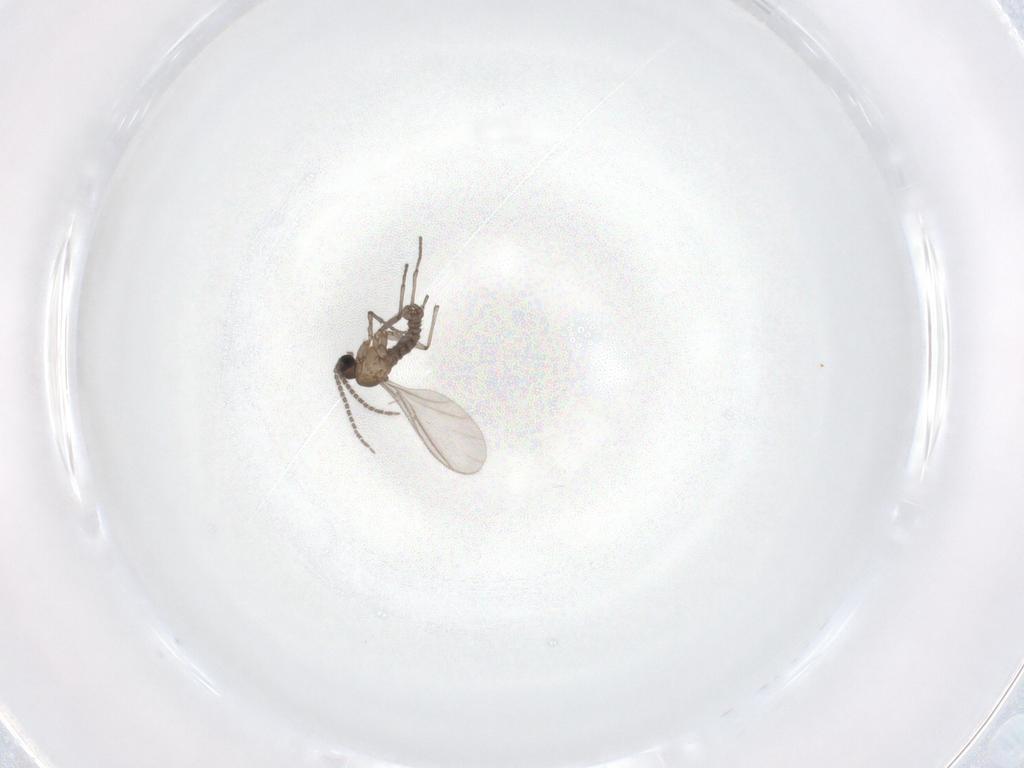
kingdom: Animalia
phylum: Arthropoda
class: Insecta
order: Diptera
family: Sciaridae
